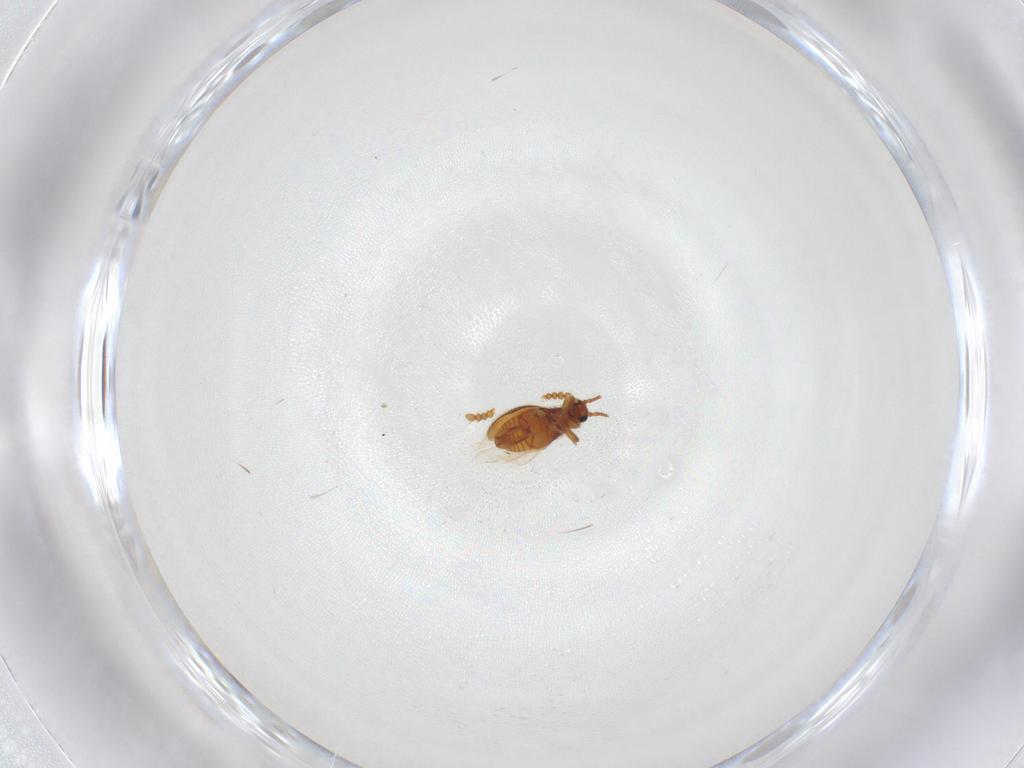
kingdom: Animalia
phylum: Arthropoda
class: Insecta
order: Coleoptera
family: Staphylinidae
